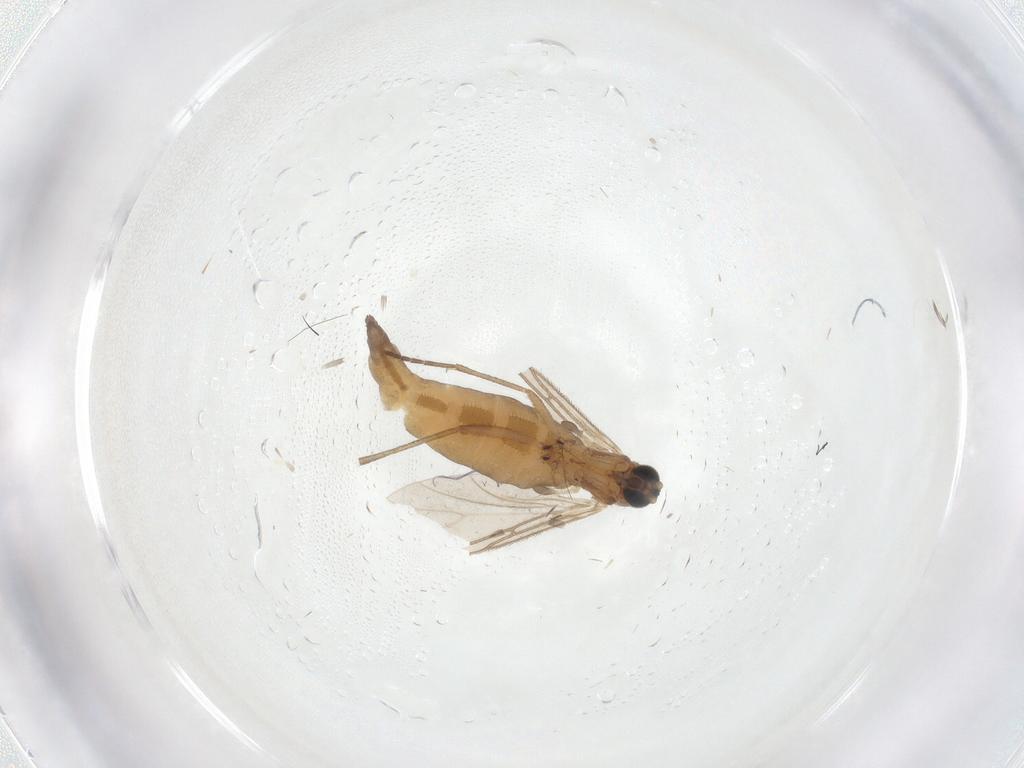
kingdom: Animalia
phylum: Arthropoda
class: Insecta
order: Diptera
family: Sciaridae
